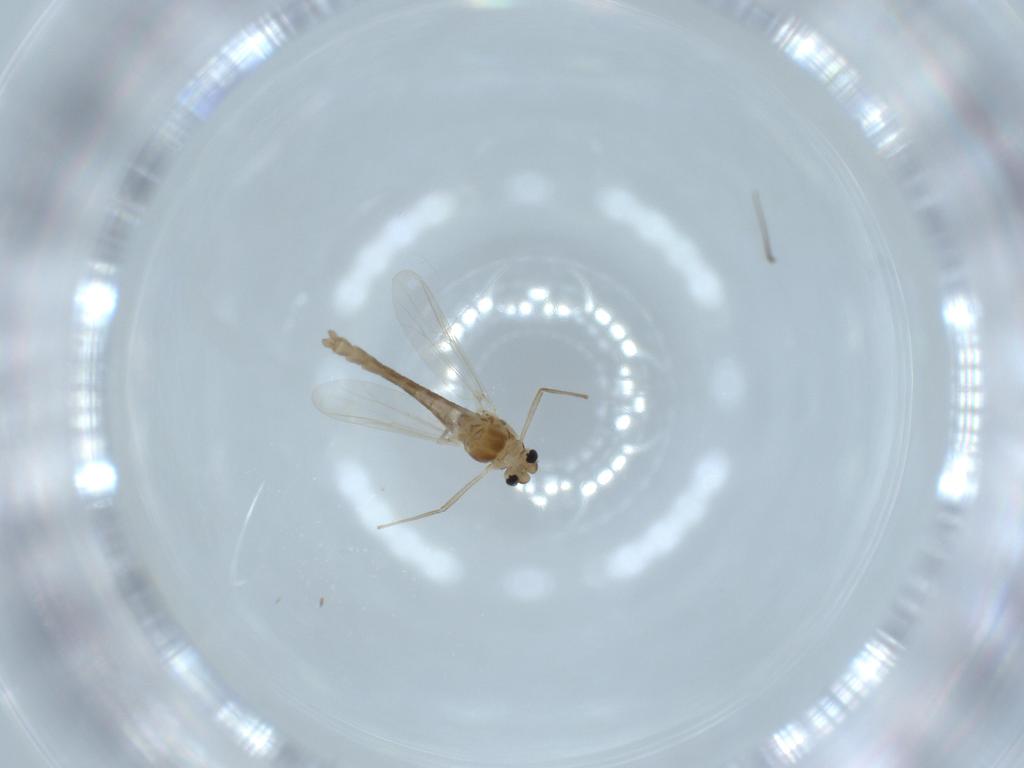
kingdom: Animalia
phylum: Arthropoda
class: Insecta
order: Diptera
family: Chironomidae
